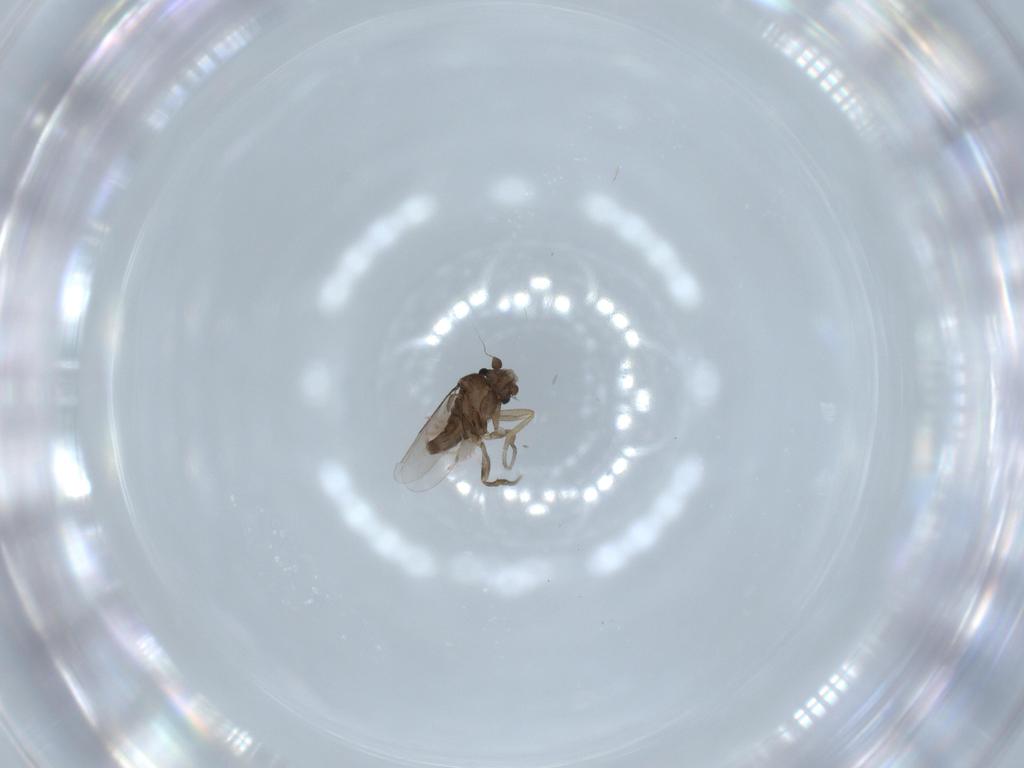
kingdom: Animalia
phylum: Arthropoda
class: Insecta
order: Diptera
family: Phoridae
